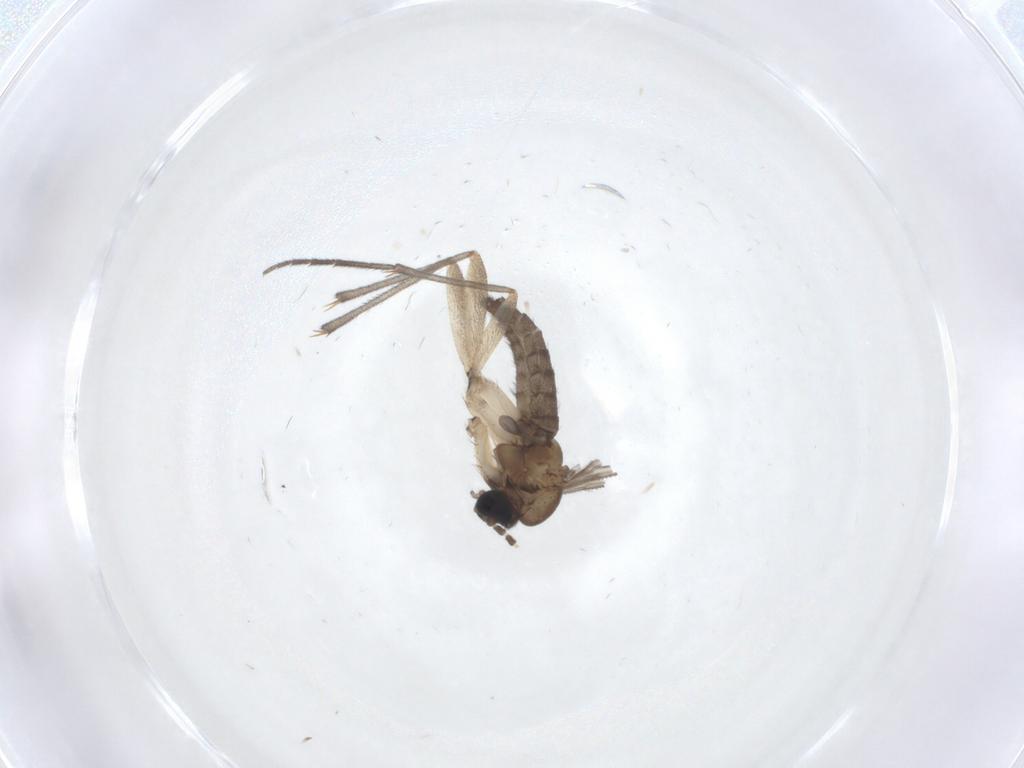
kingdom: Animalia
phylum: Arthropoda
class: Insecta
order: Diptera
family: Sciaridae
